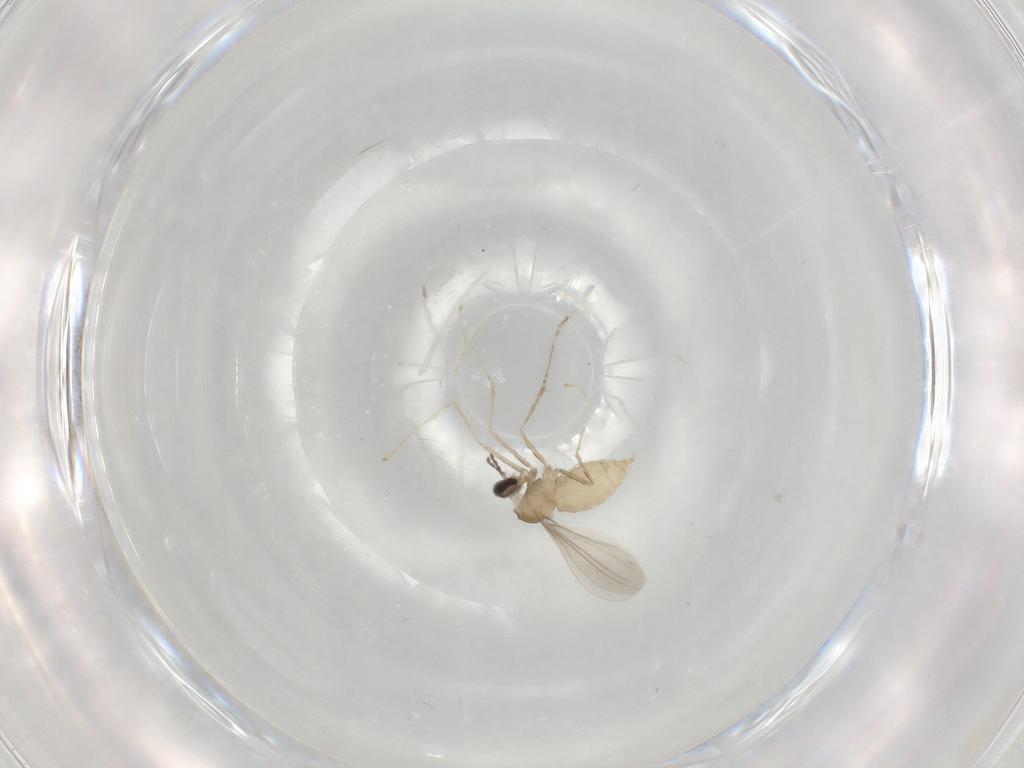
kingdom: Animalia
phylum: Arthropoda
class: Insecta
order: Diptera
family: Cecidomyiidae
